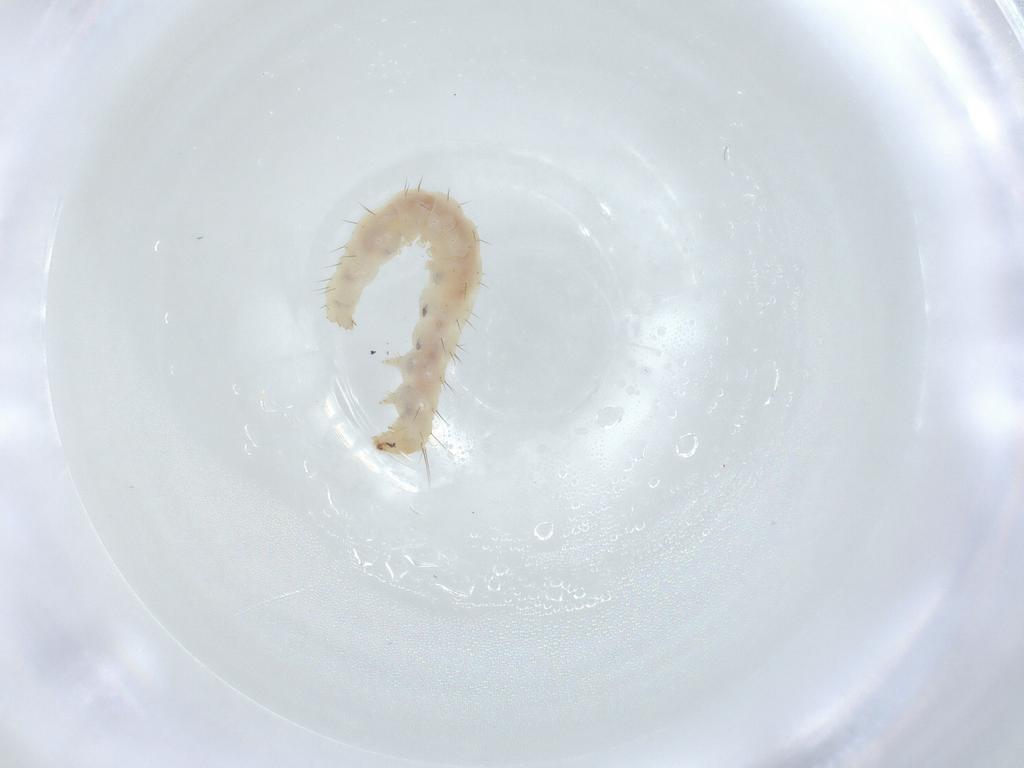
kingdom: Animalia
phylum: Arthropoda
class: Insecta
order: Lepidoptera
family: Bucculatricidae
